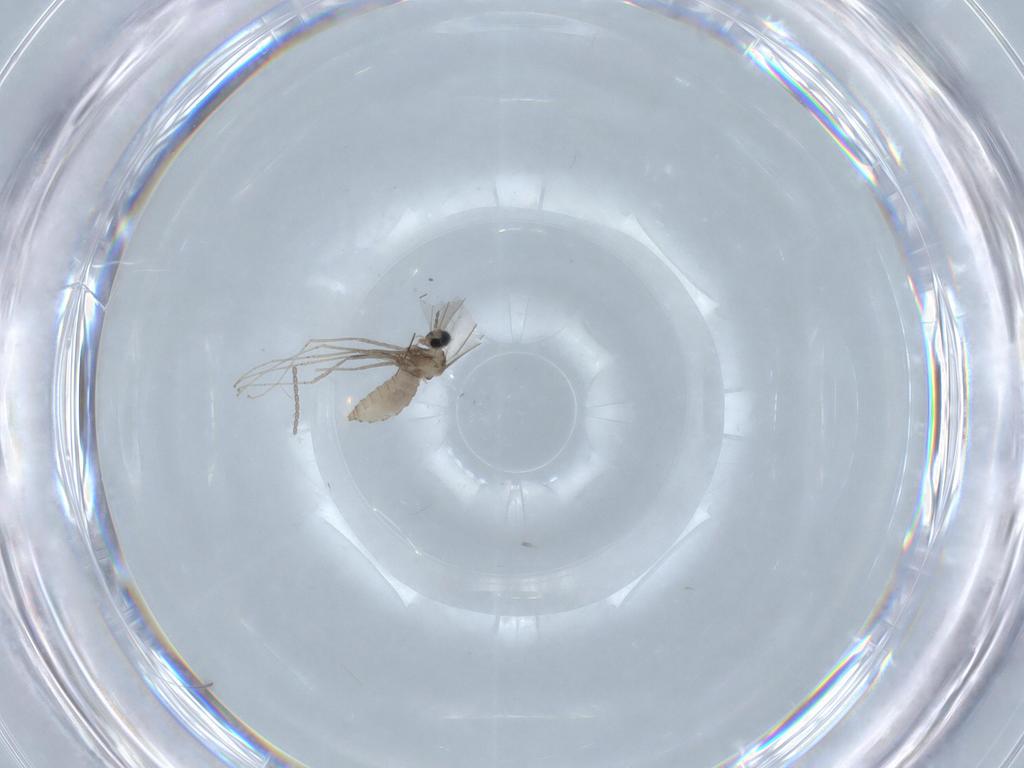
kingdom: Animalia
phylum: Arthropoda
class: Insecta
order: Diptera
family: Cecidomyiidae
